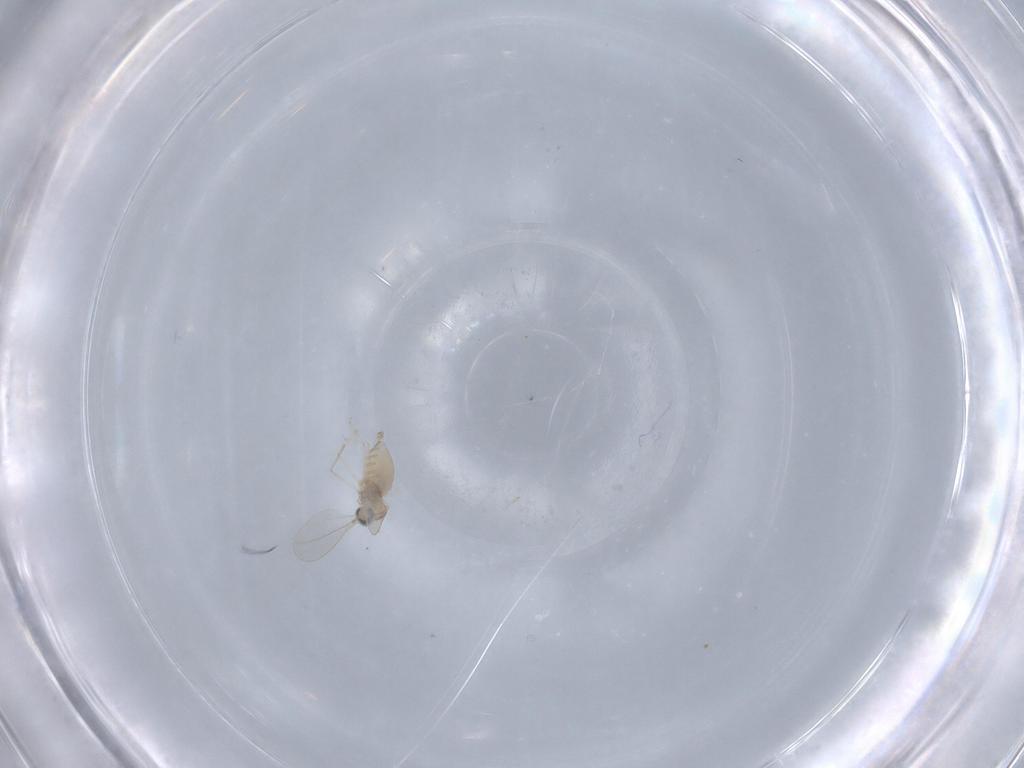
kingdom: Animalia
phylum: Arthropoda
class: Insecta
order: Diptera
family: Cecidomyiidae
